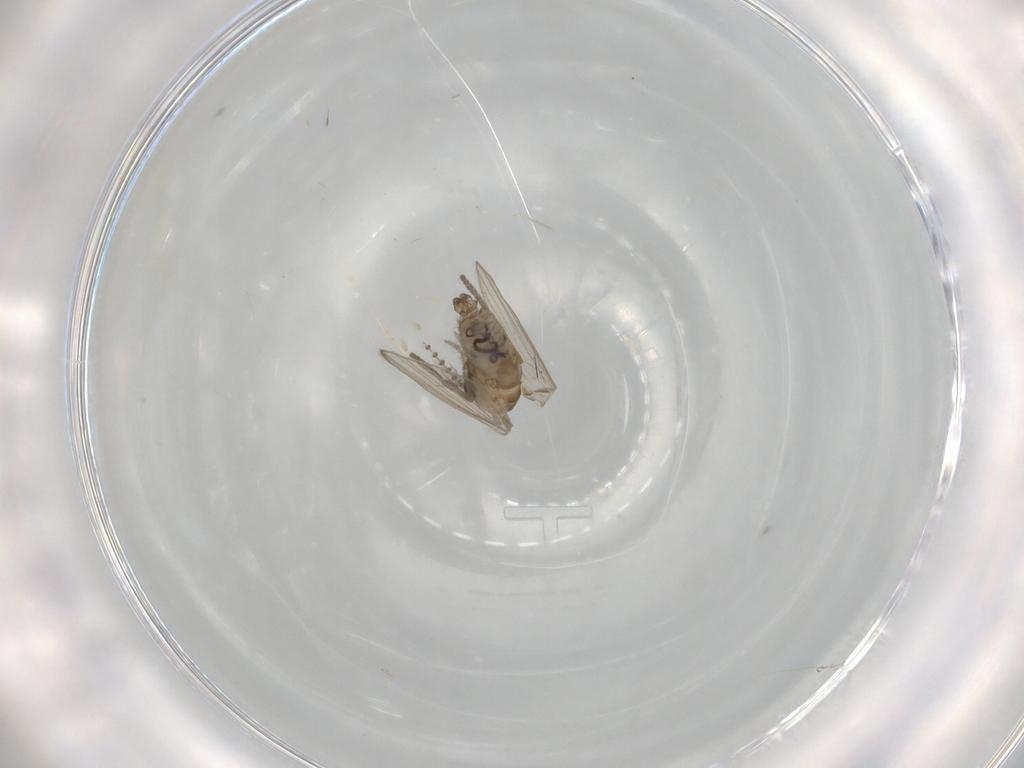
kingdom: Animalia
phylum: Arthropoda
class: Insecta
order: Diptera
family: Psychodidae
